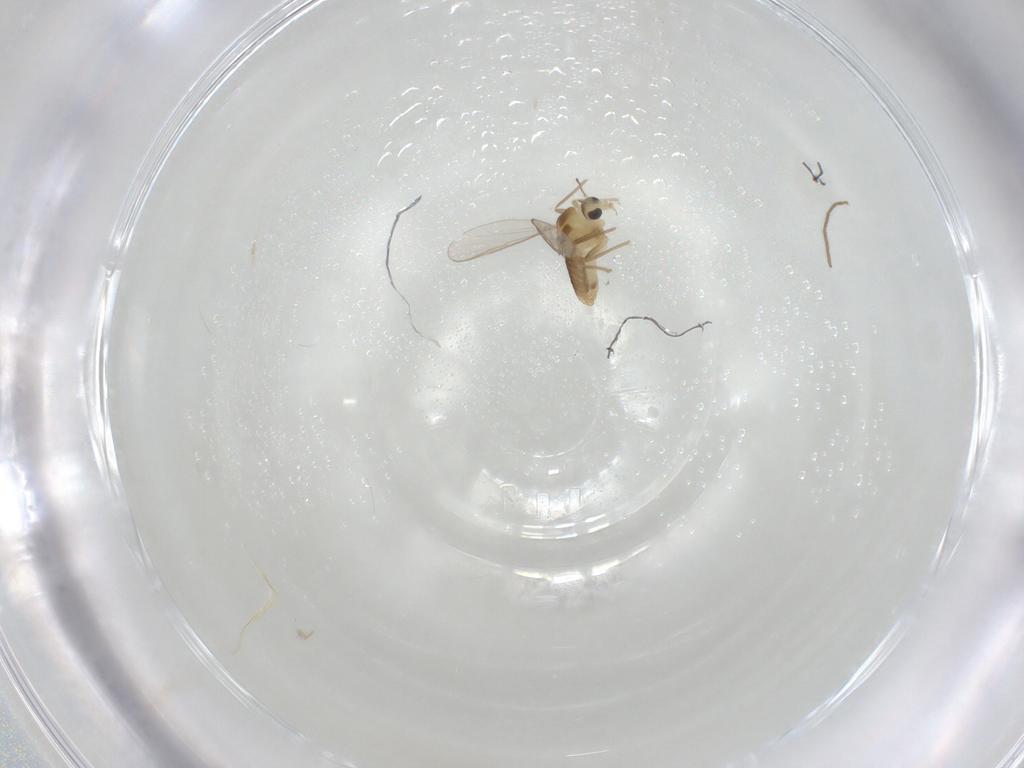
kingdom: Animalia
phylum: Arthropoda
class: Insecta
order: Diptera
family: Chironomidae
